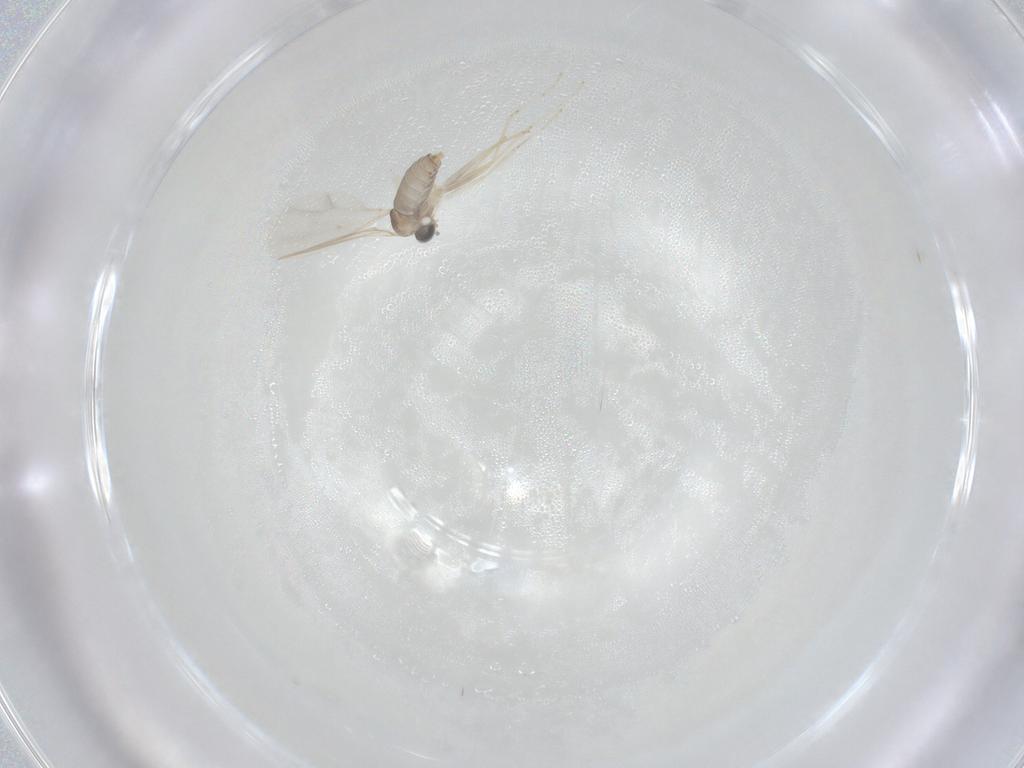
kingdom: Animalia
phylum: Arthropoda
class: Insecta
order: Diptera
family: Cecidomyiidae
